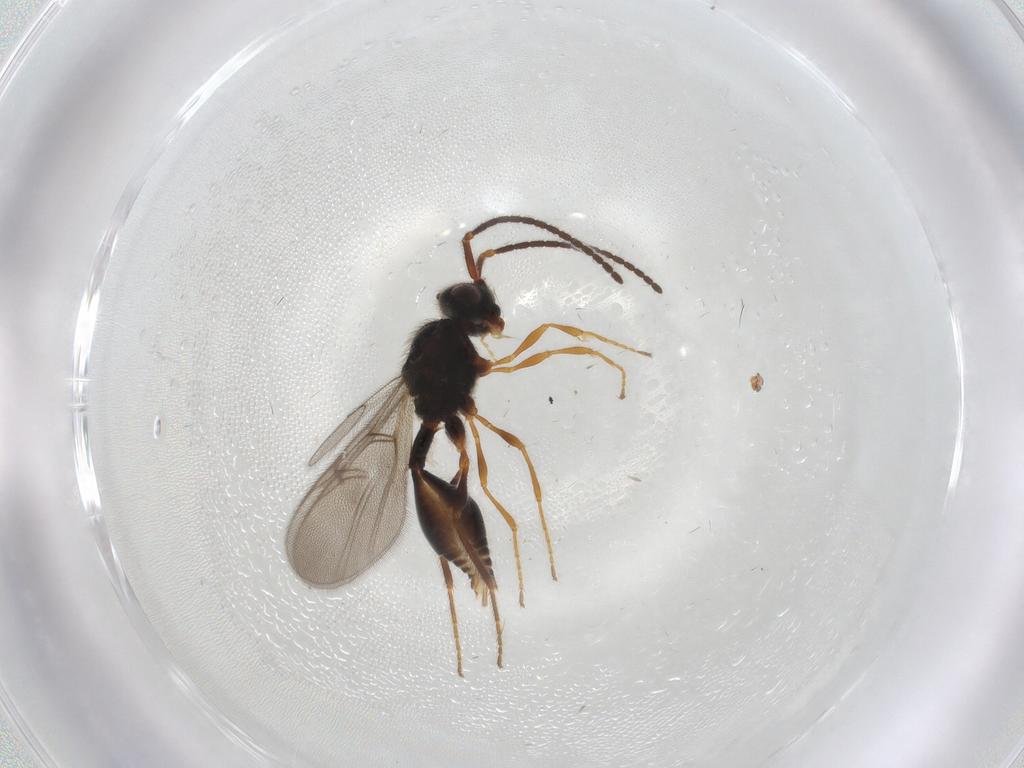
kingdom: Animalia
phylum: Arthropoda
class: Insecta
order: Hymenoptera
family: Diapriidae
